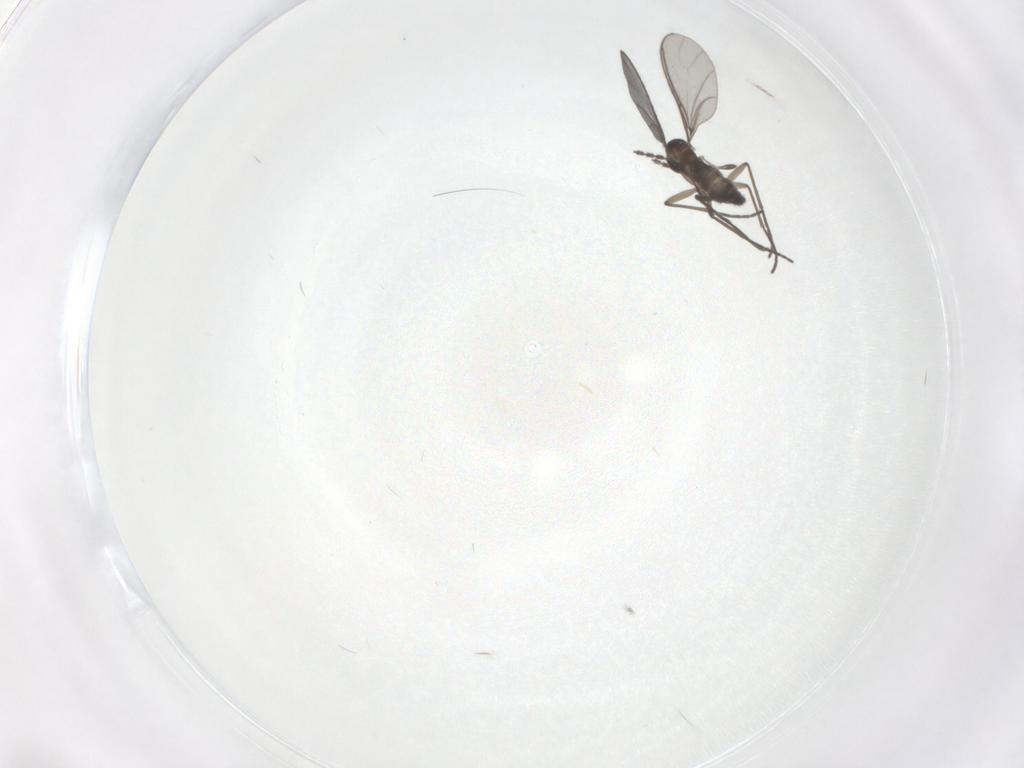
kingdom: Animalia
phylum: Arthropoda
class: Insecta
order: Diptera
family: Sciaridae
